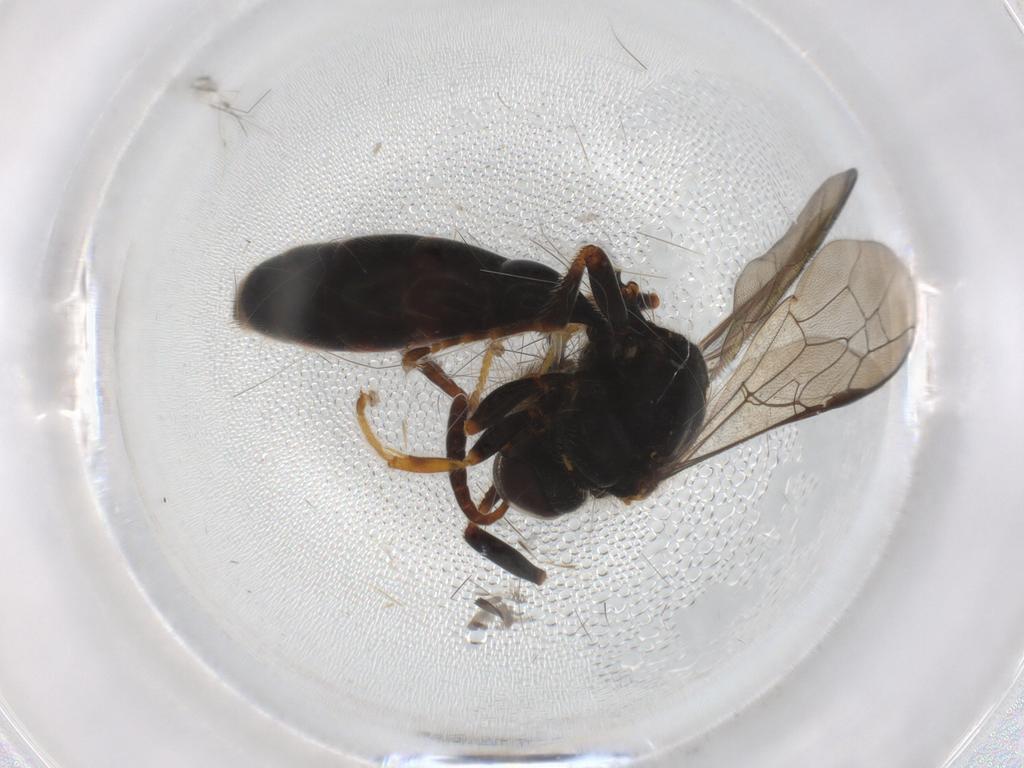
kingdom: Animalia
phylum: Arthropoda
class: Insecta
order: Hymenoptera
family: Psenidae
